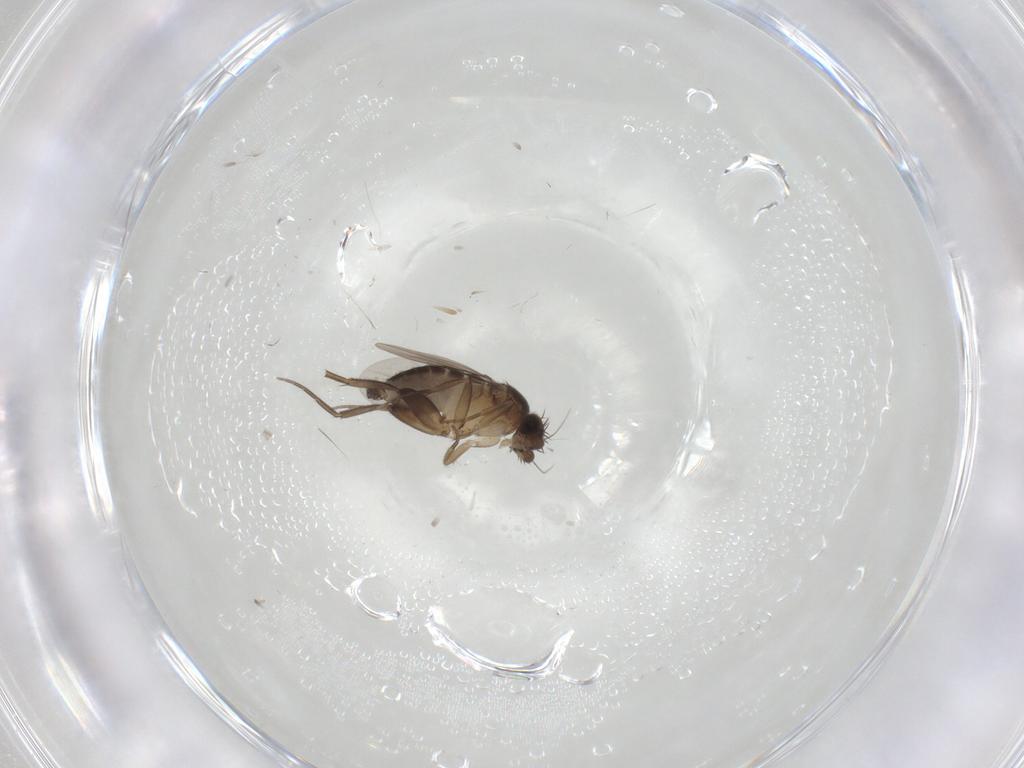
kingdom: Animalia
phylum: Arthropoda
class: Insecta
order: Diptera
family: Phoridae
